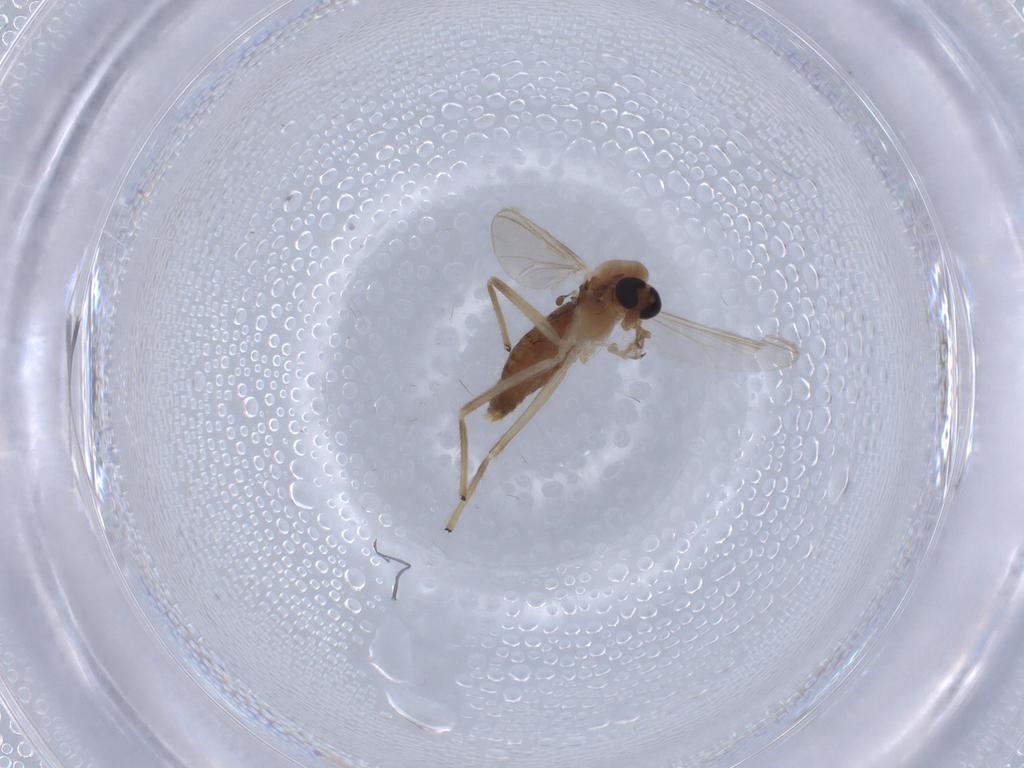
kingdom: Animalia
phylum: Arthropoda
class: Insecta
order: Diptera
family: Chironomidae
